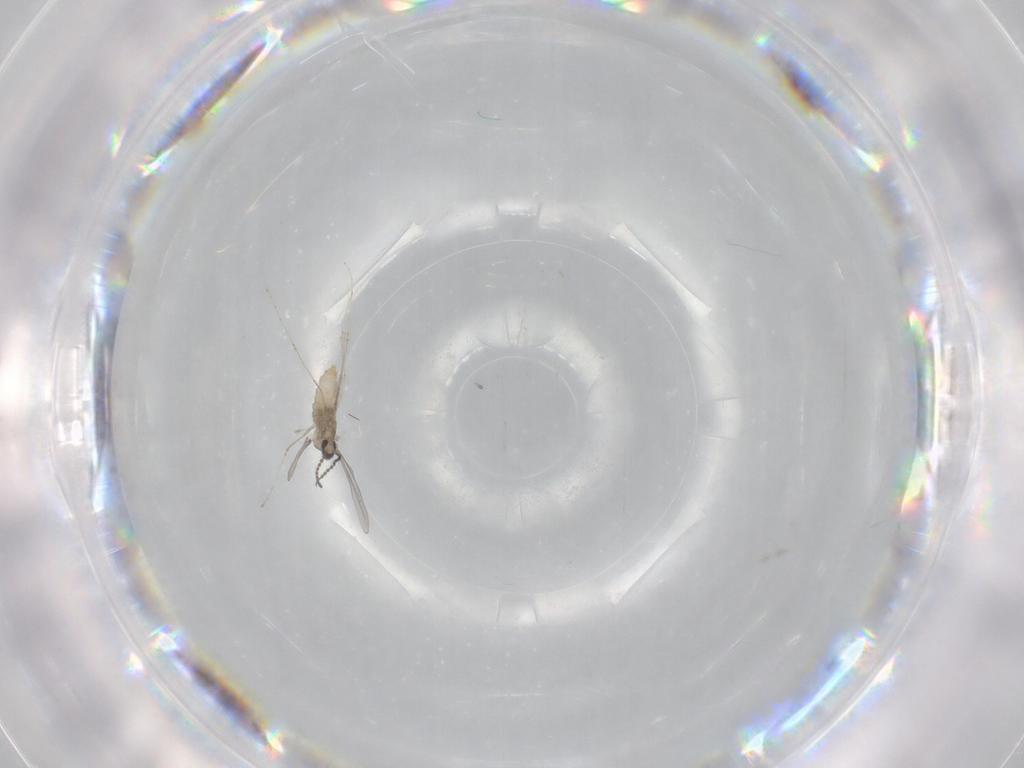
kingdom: Animalia
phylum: Arthropoda
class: Insecta
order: Diptera
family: Cecidomyiidae
